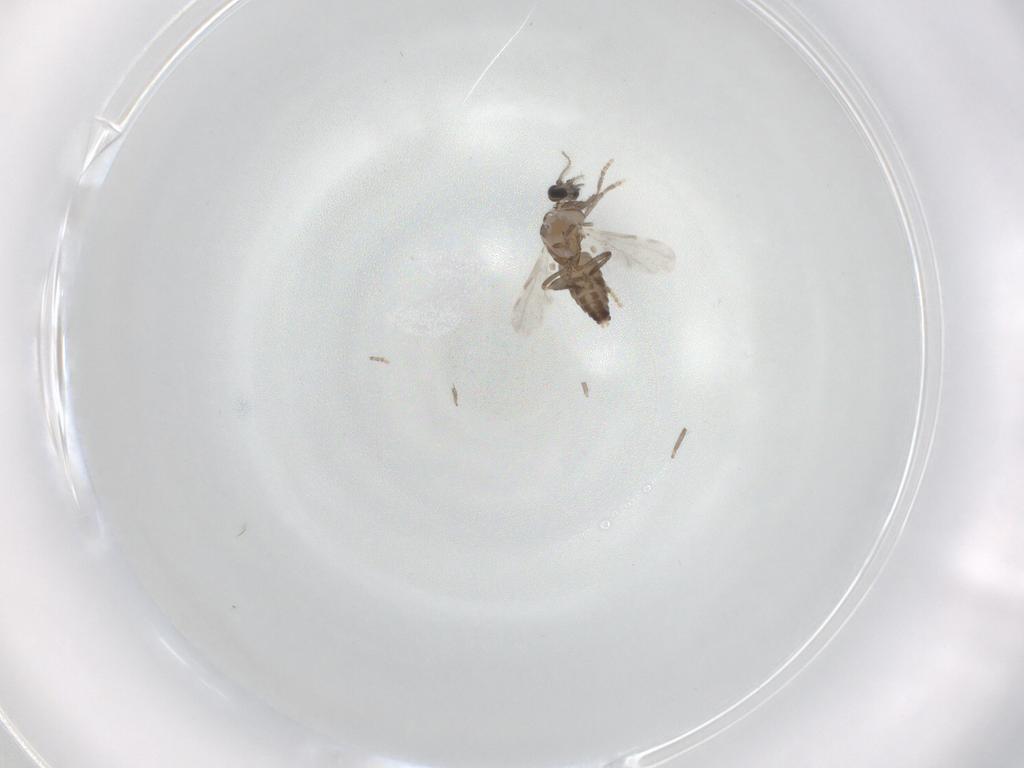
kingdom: Animalia
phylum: Arthropoda
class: Insecta
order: Diptera
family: Ceratopogonidae
